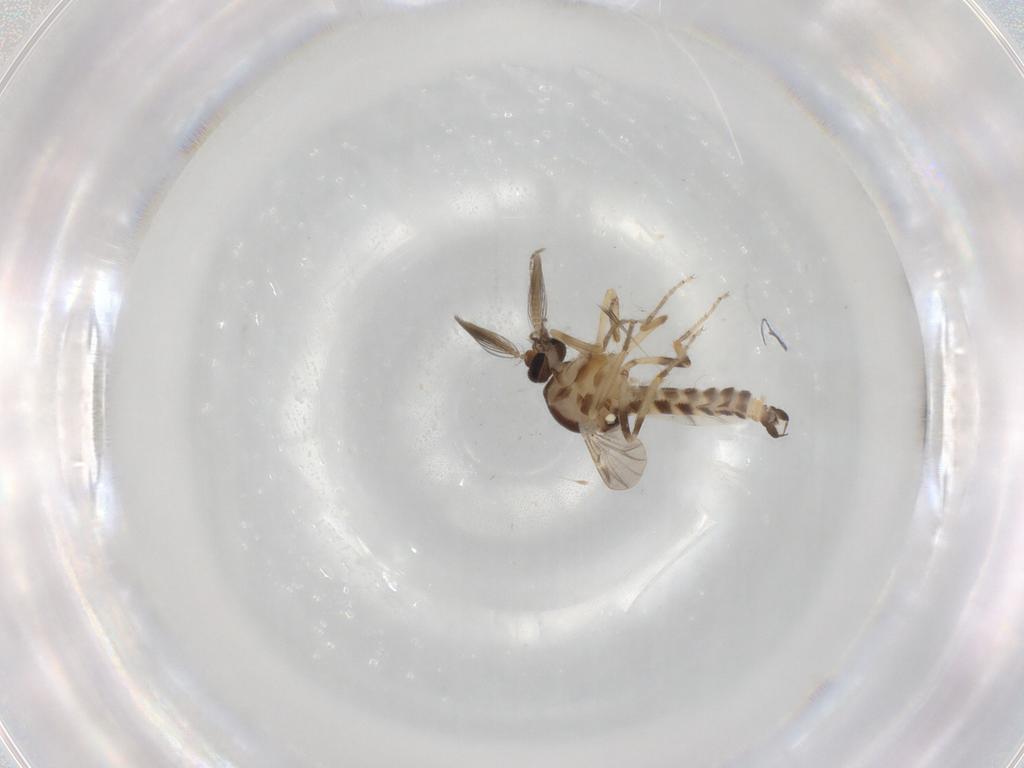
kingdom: Animalia
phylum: Arthropoda
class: Insecta
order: Diptera
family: Ceratopogonidae
